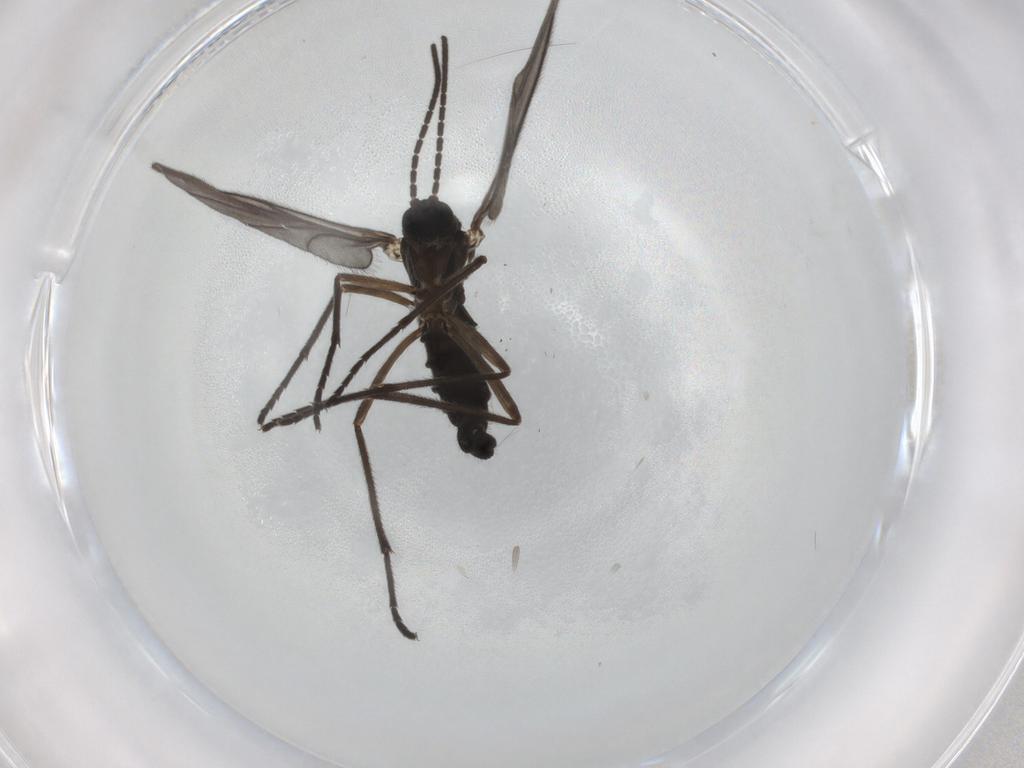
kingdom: Animalia
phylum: Arthropoda
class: Insecta
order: Diptera
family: Sciaridae
